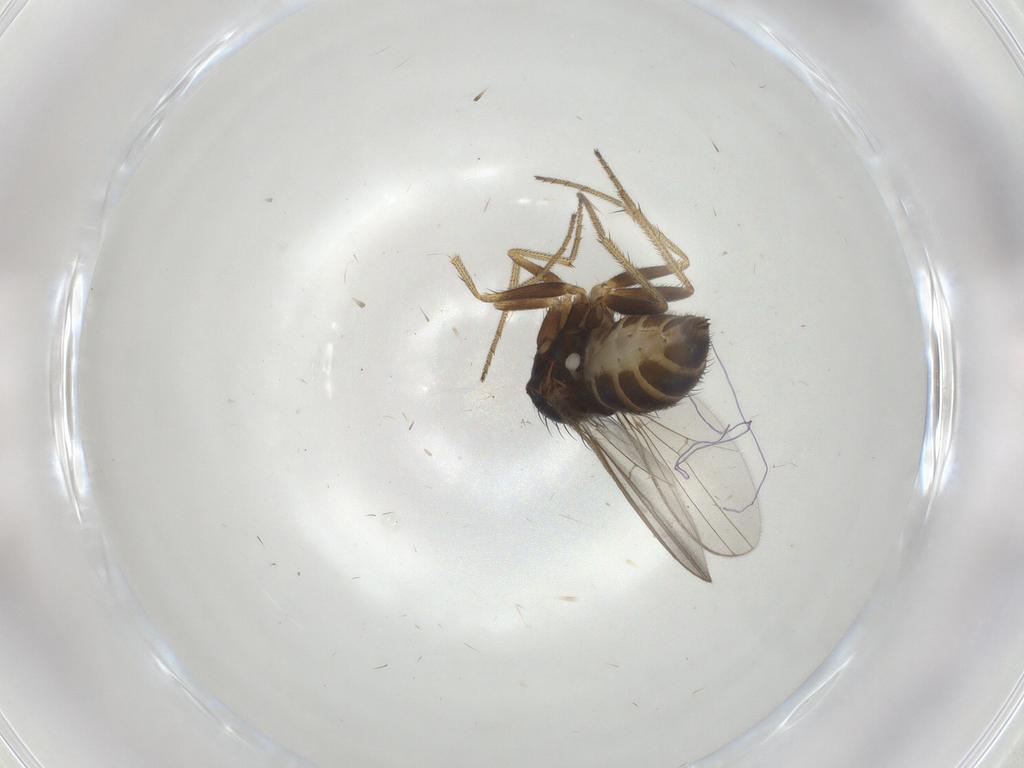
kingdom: Animalia
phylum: Arthropoda
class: Insecta
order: Diptera
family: Dolichopodidae
